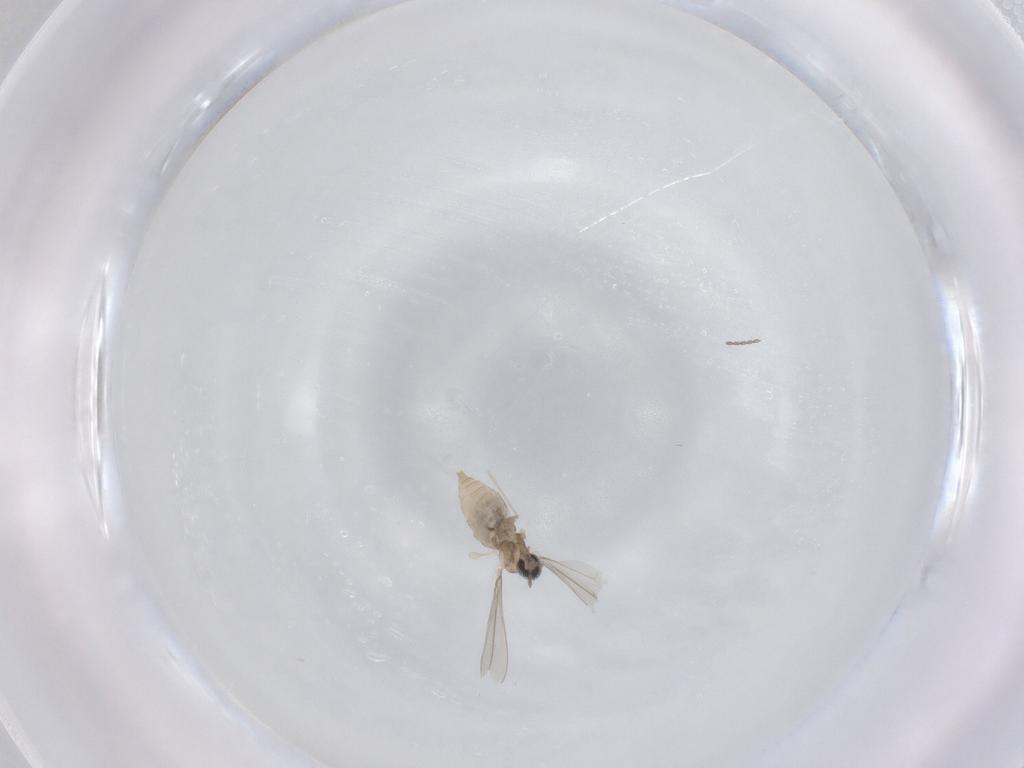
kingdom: Animalia
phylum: Arthropoda
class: Insecta
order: Diptera
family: Cecidomyiidae
